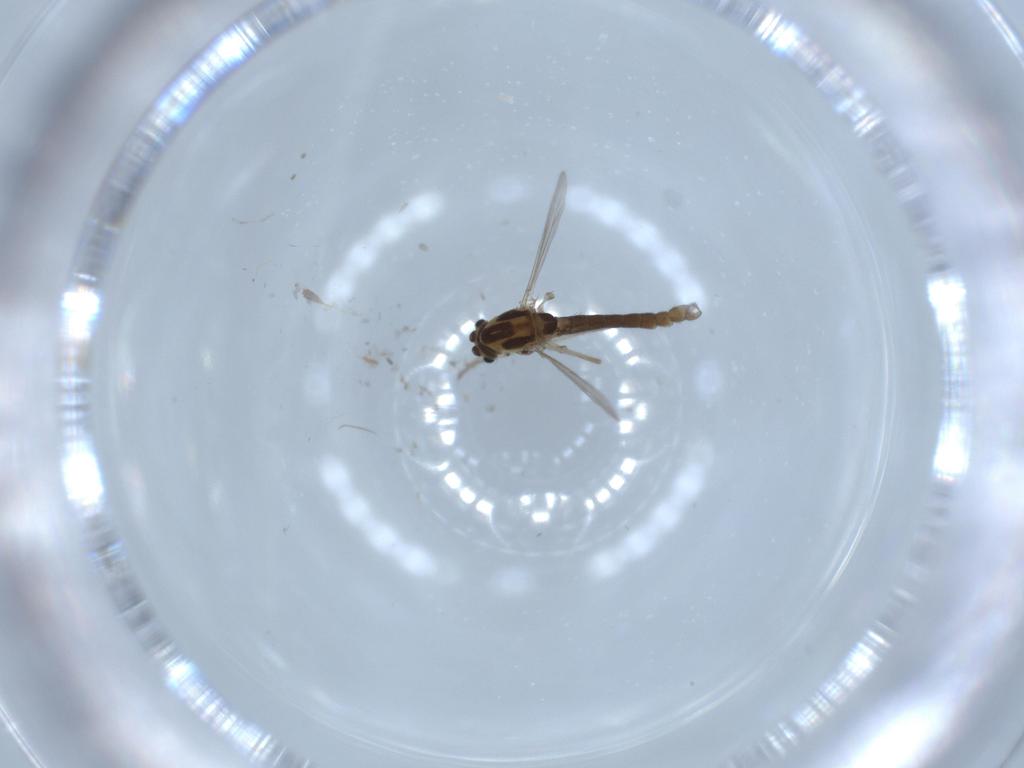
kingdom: Animalia
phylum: Arthropoda
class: Insecta
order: Diptera
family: Chironomidae
